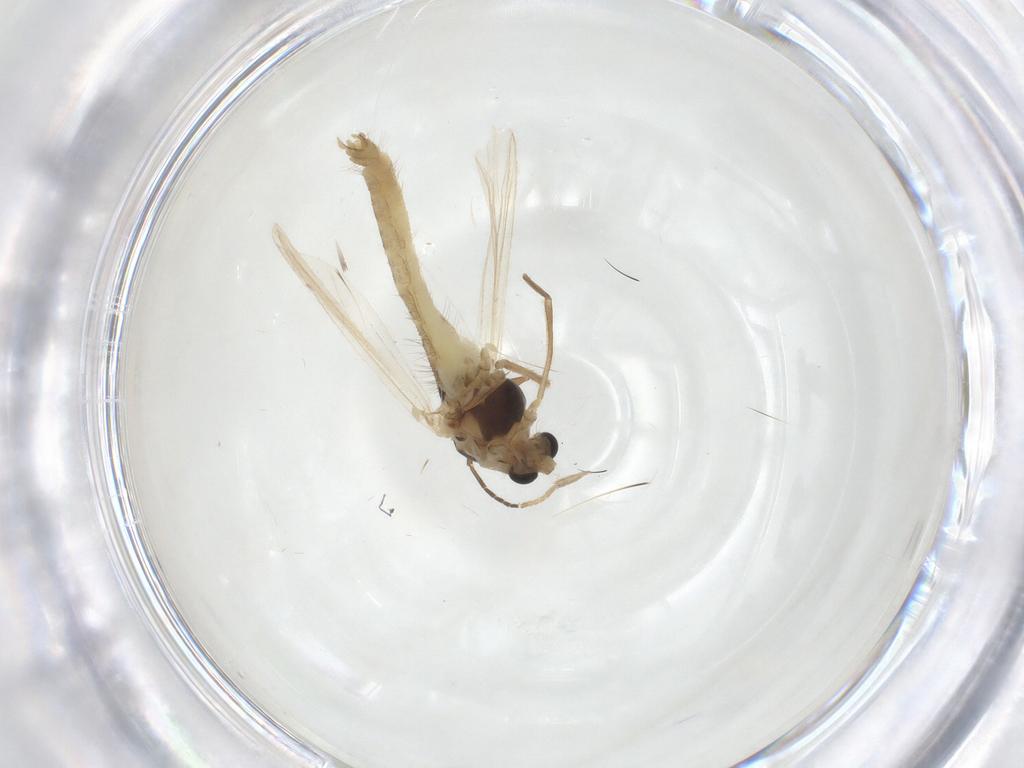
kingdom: Animalia
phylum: Arthropoda
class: Insecta
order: Diptera
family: Chironomidae
